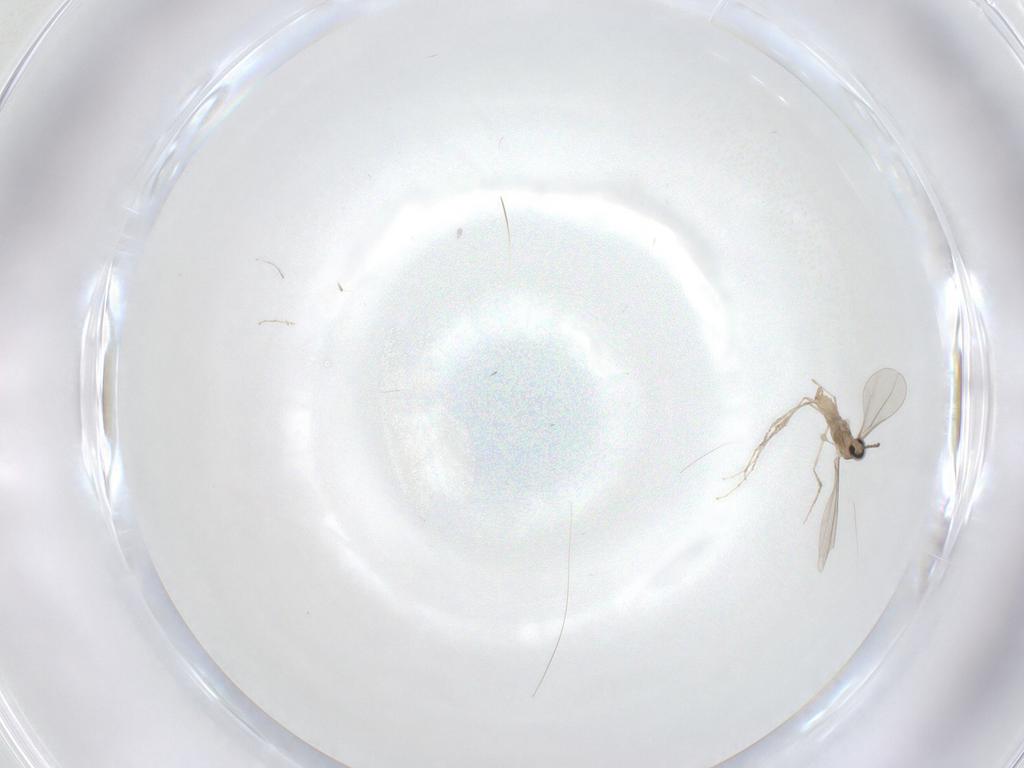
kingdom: Animalia
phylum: Arthropoda
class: Insecta
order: Diptera
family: Cecidomyiidae
